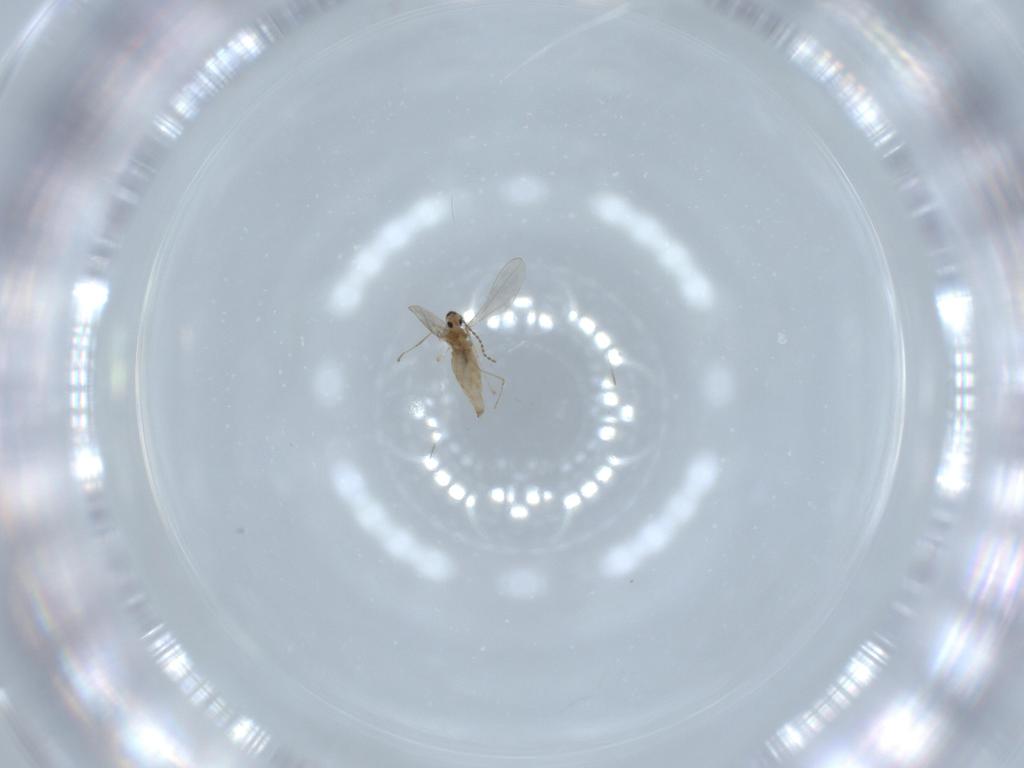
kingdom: Animalia
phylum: Arthropoda
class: Insecta
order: Diptera
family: Cecidomyiidae
